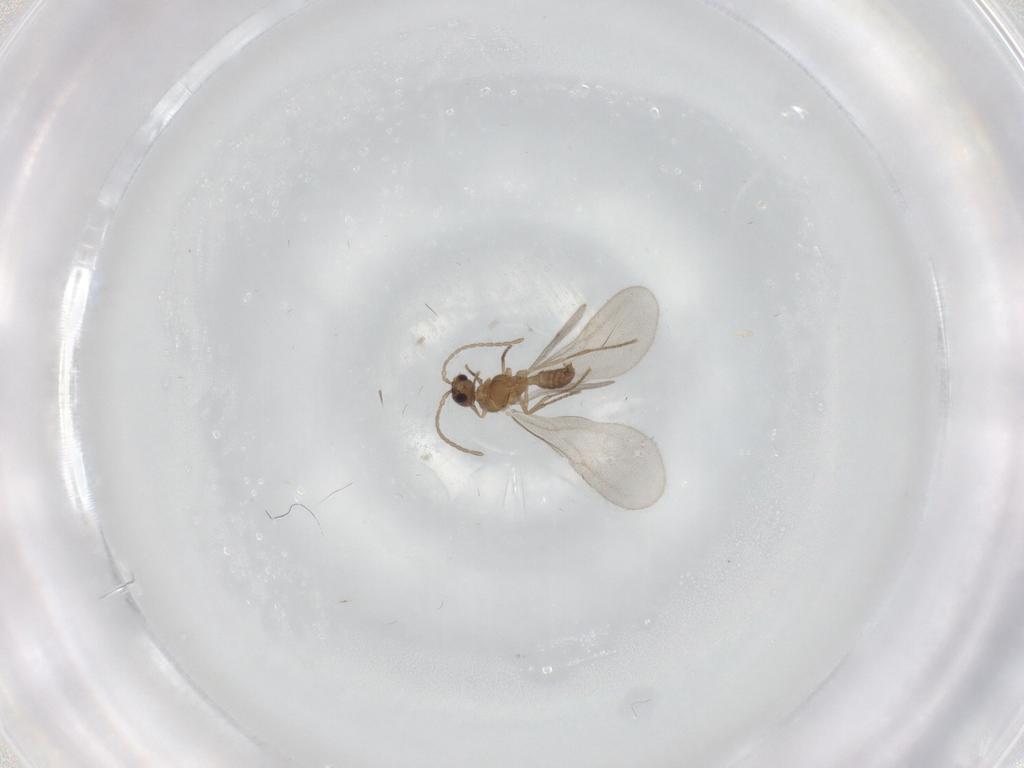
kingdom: Animalia
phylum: Arthropoda
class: Insecta
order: Hymenoptera
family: Formicidae
